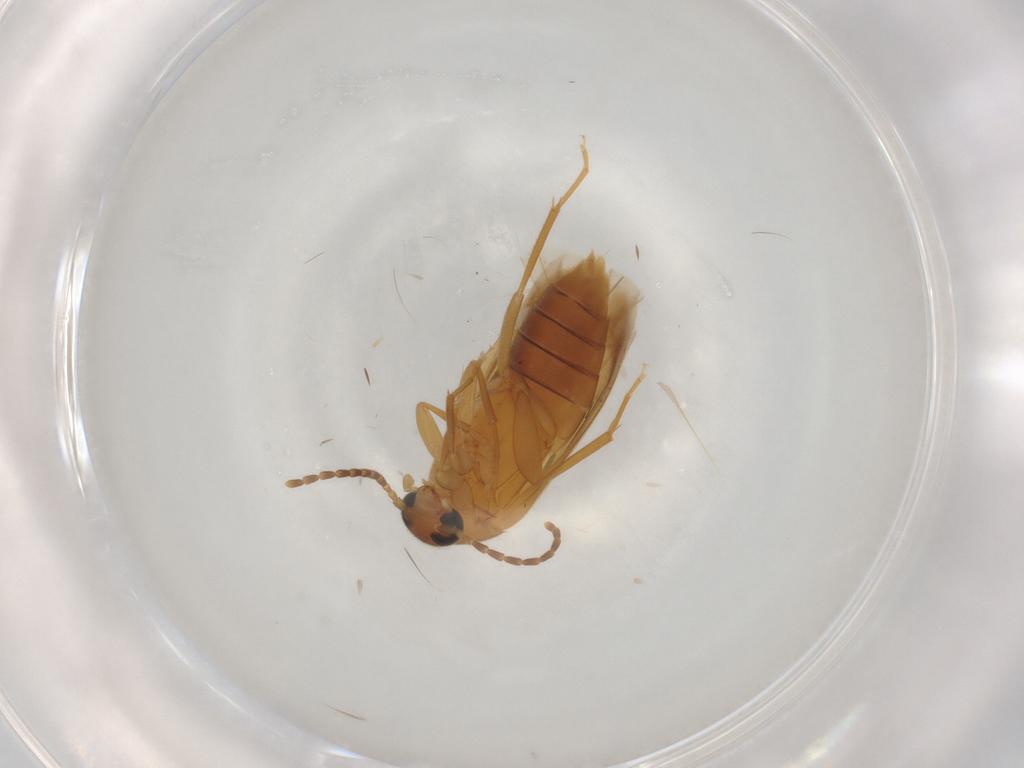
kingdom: Animalia
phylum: Arthropoda
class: Insecta
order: Coleoptera
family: Scraptiidae
